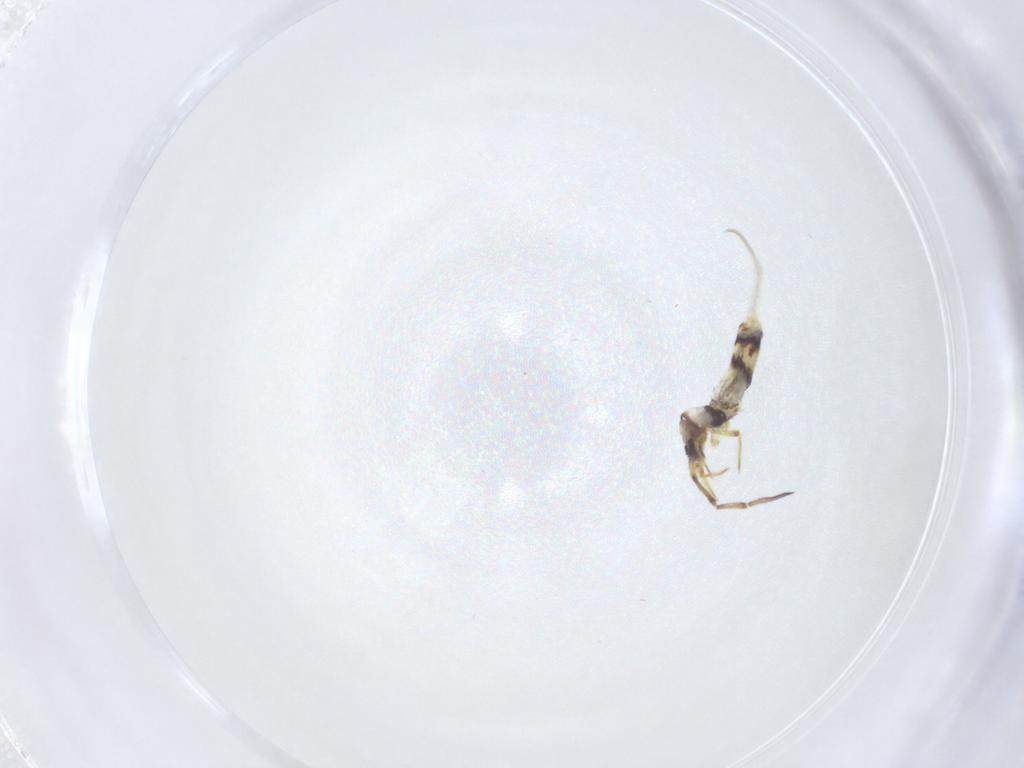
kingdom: Animalia
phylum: Arthropoda
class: Collembola
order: Entomobryomorpha
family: Entomobryidae
